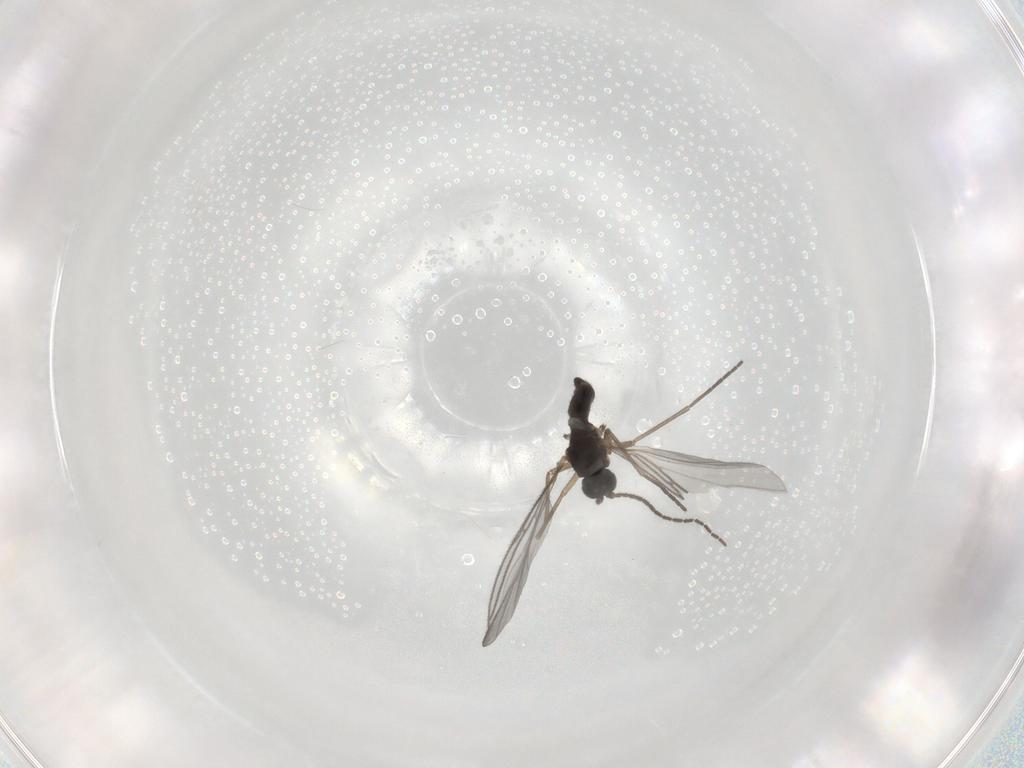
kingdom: Animalia
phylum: Arthropoda
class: Insecta
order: Diptera
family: Sciaridae
